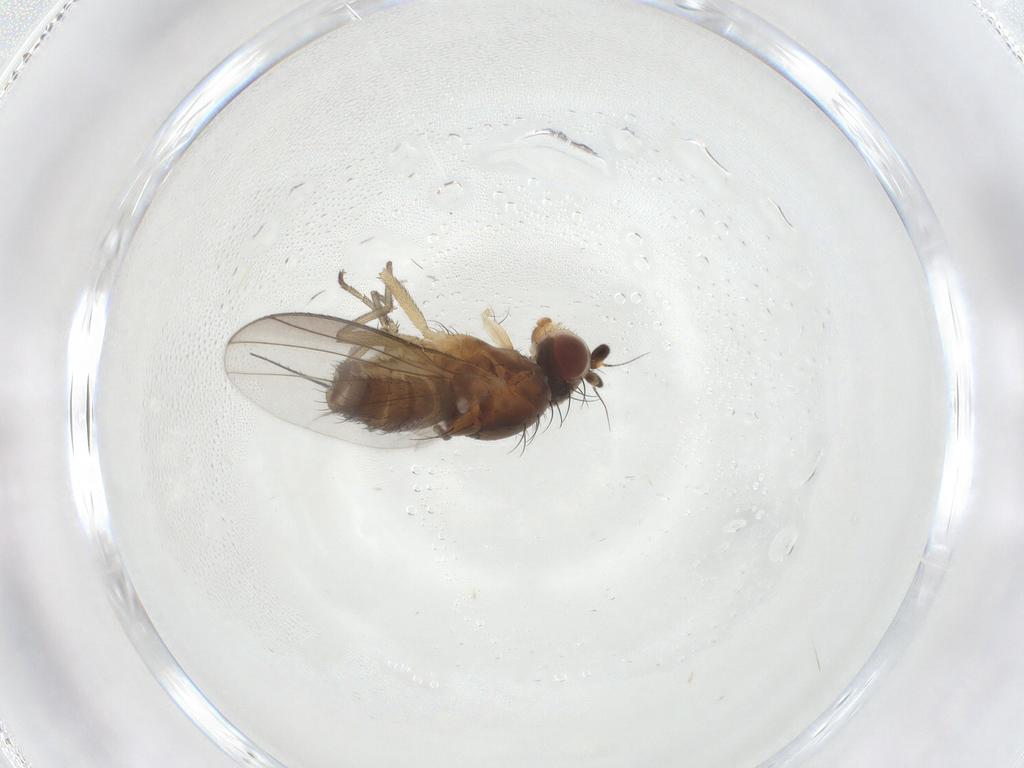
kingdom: Animalia
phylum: Arthropoda
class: Insecta
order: Diptera
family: Heleomyzidae
